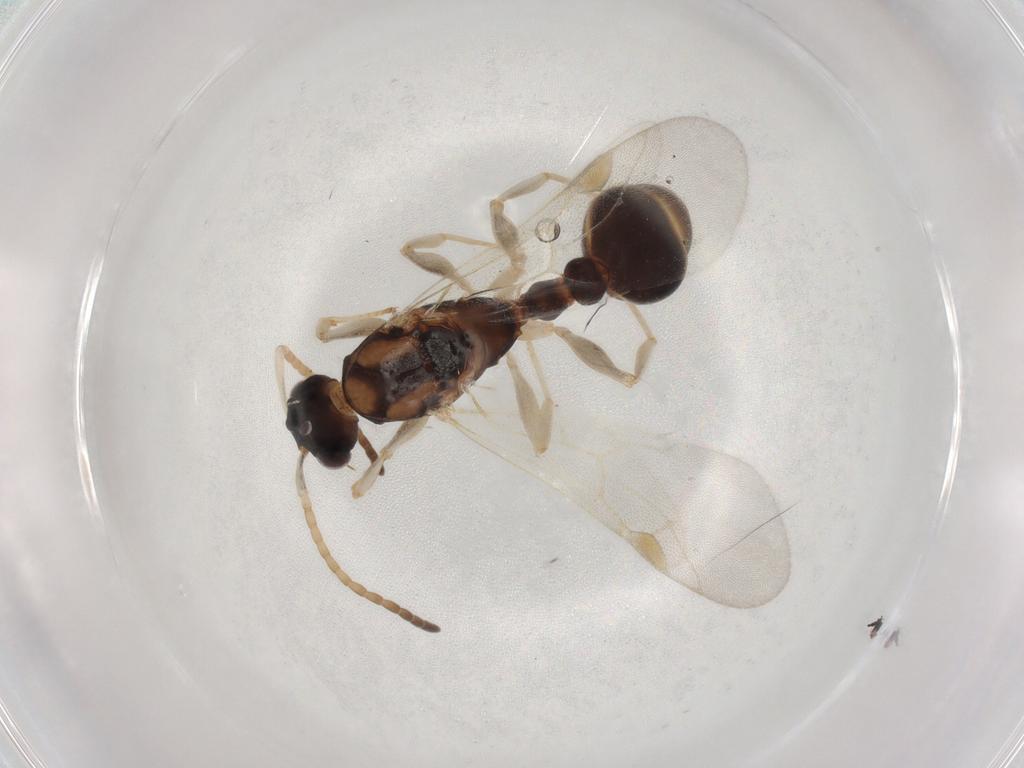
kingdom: Animalia
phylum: Arthropoda
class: Insecta
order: Hymenoptera
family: Formicidae
